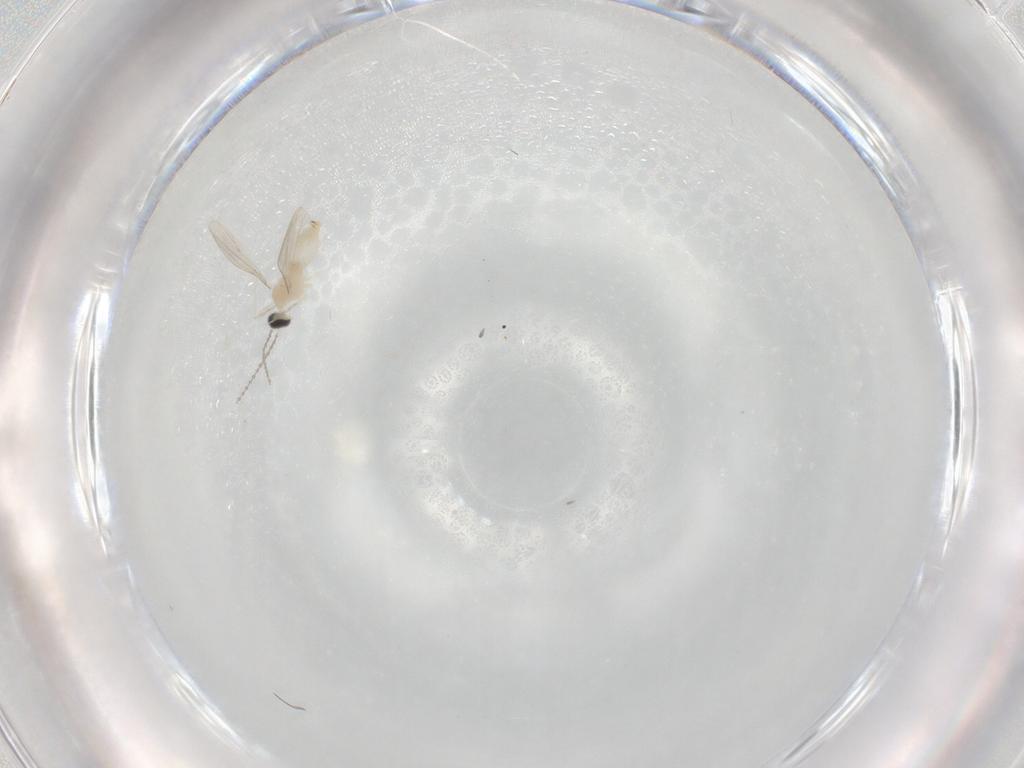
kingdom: Animalia
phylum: Arthropoda
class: Insecta
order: Diptera
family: Cecidomyiidae
